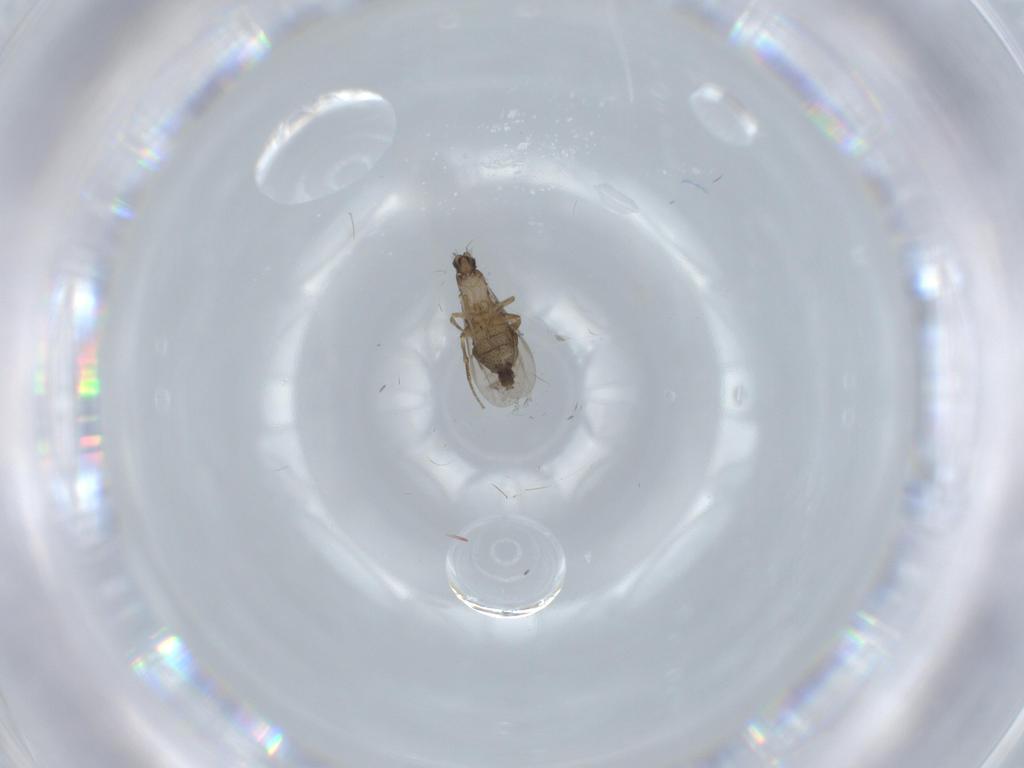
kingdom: Animalia
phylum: Arthropoda
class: Insecta
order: Diptera
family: Phoridae
